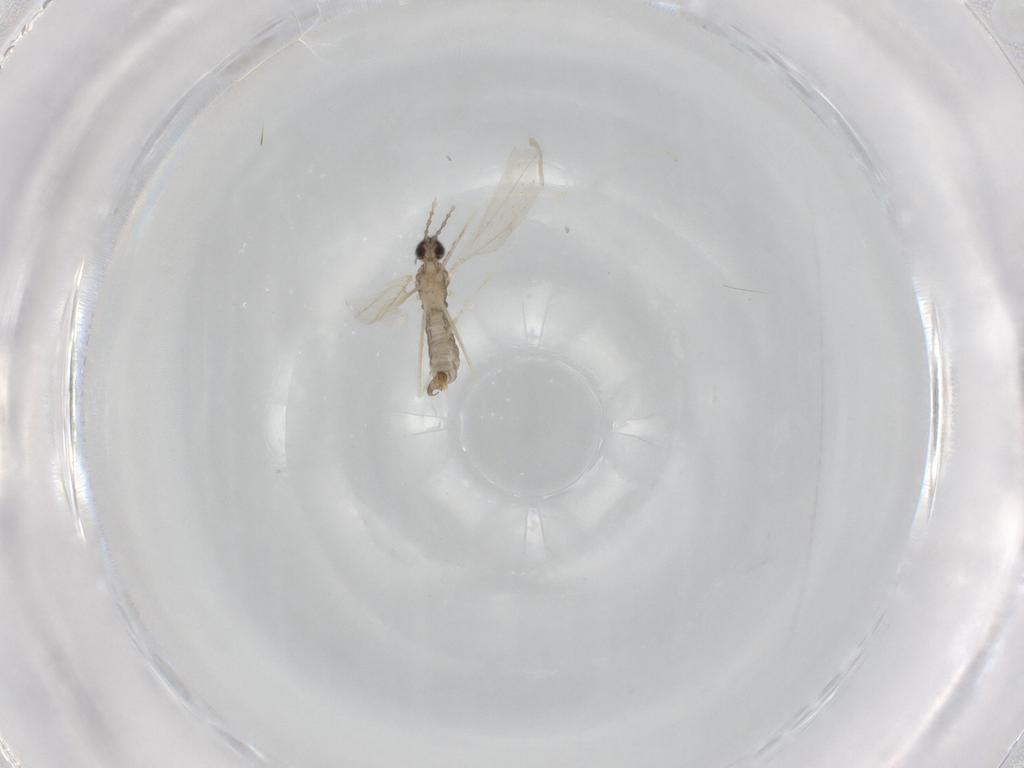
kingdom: Animalia
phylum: Arthropoda
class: Insecta
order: Diptera
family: Cecidomyiidae
